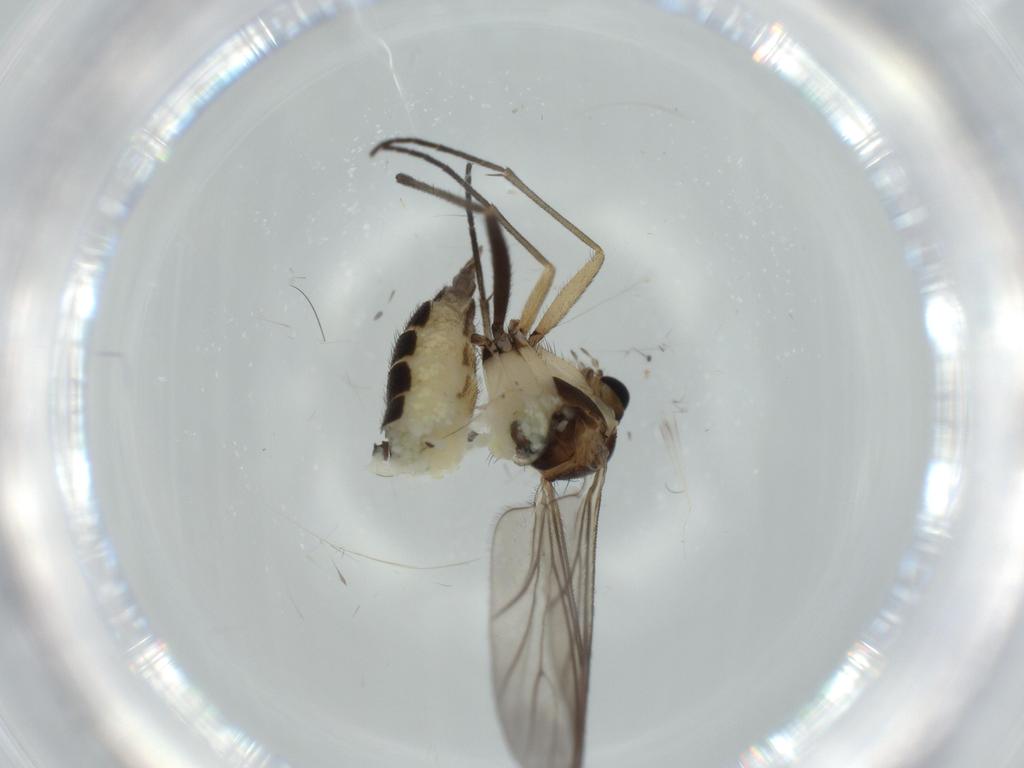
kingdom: Animalia
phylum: Arthropoda
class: Insecta
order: Diptera
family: Sciaridae
